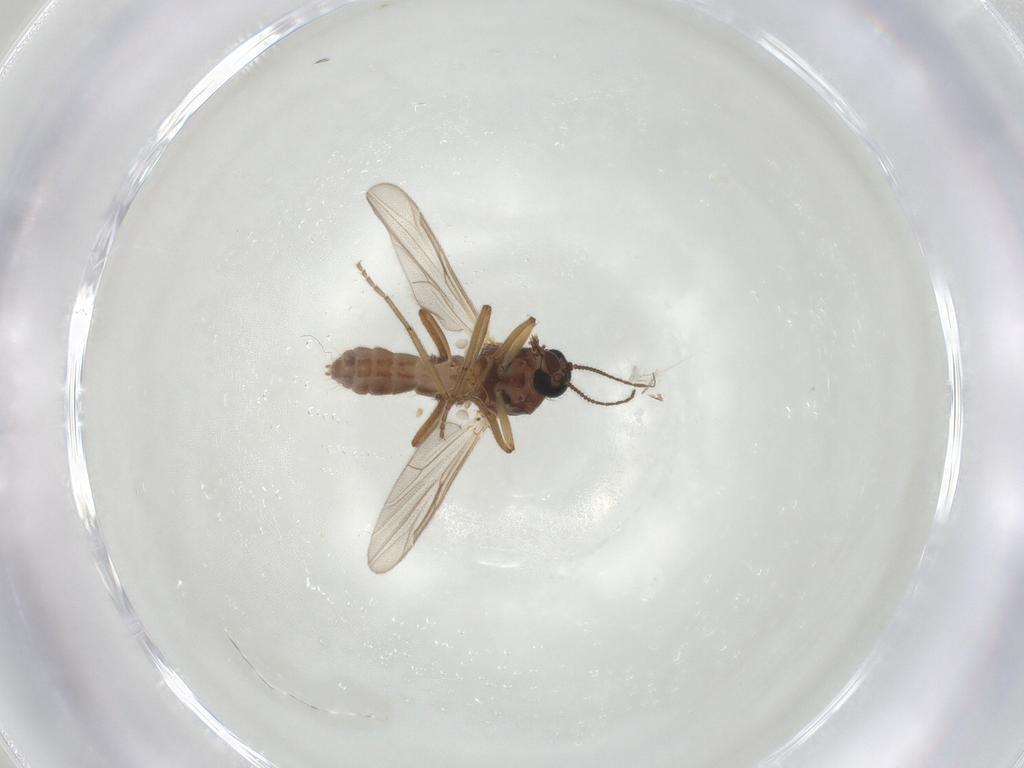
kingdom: Animalia
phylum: Arthropoda
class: Insecta
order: Diptera
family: Ceratopogonidae
